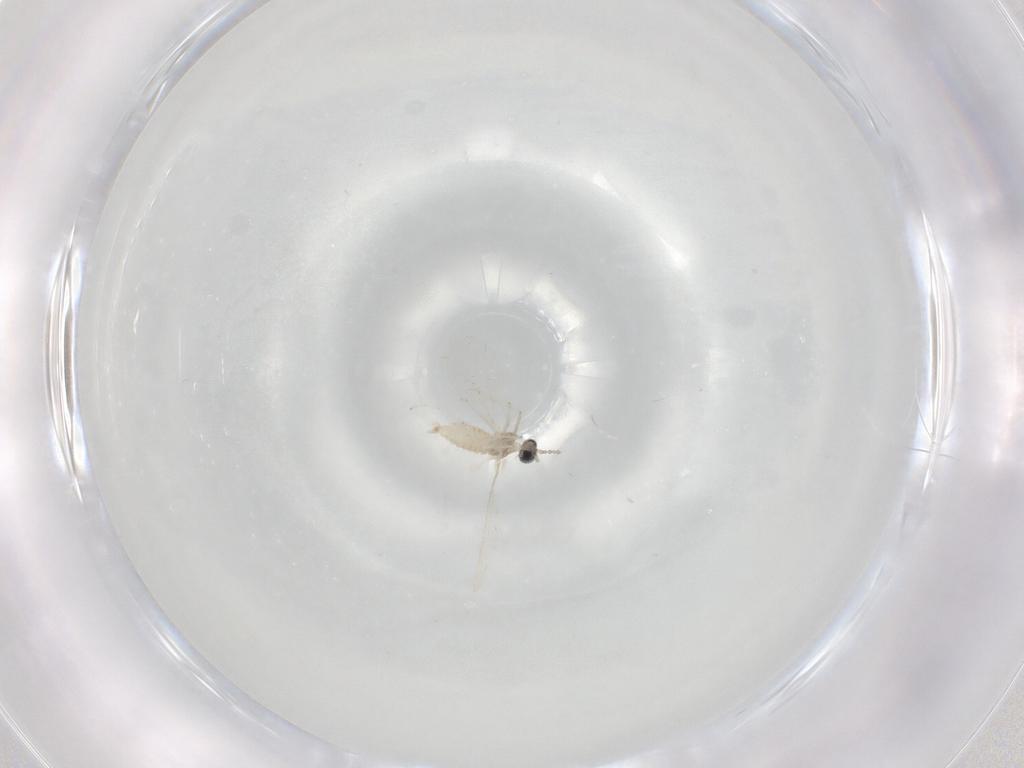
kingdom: Animalia
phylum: Arthropoda
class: Insecta
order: Diptera
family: Cecidomyiidae
